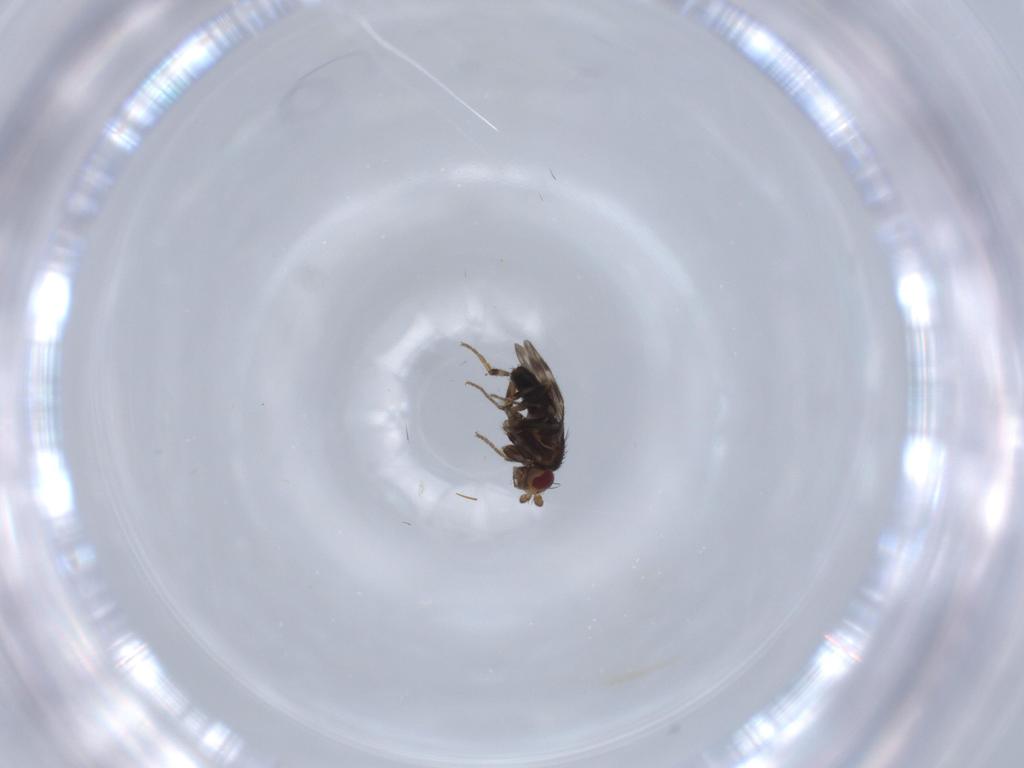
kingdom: Animalia
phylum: Arthropoda
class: Insecta
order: Diptera
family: Sphaeroceridae
